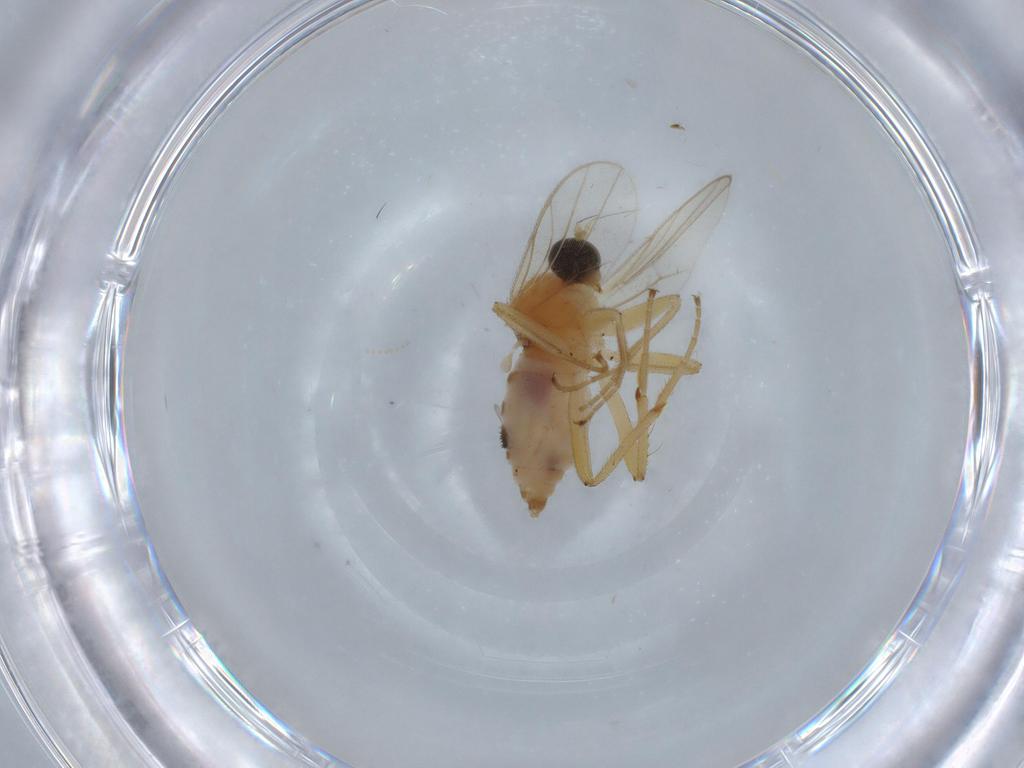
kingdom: Animalia
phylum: Arthropoda
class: Insecta
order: Diptera
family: Hybotidae
